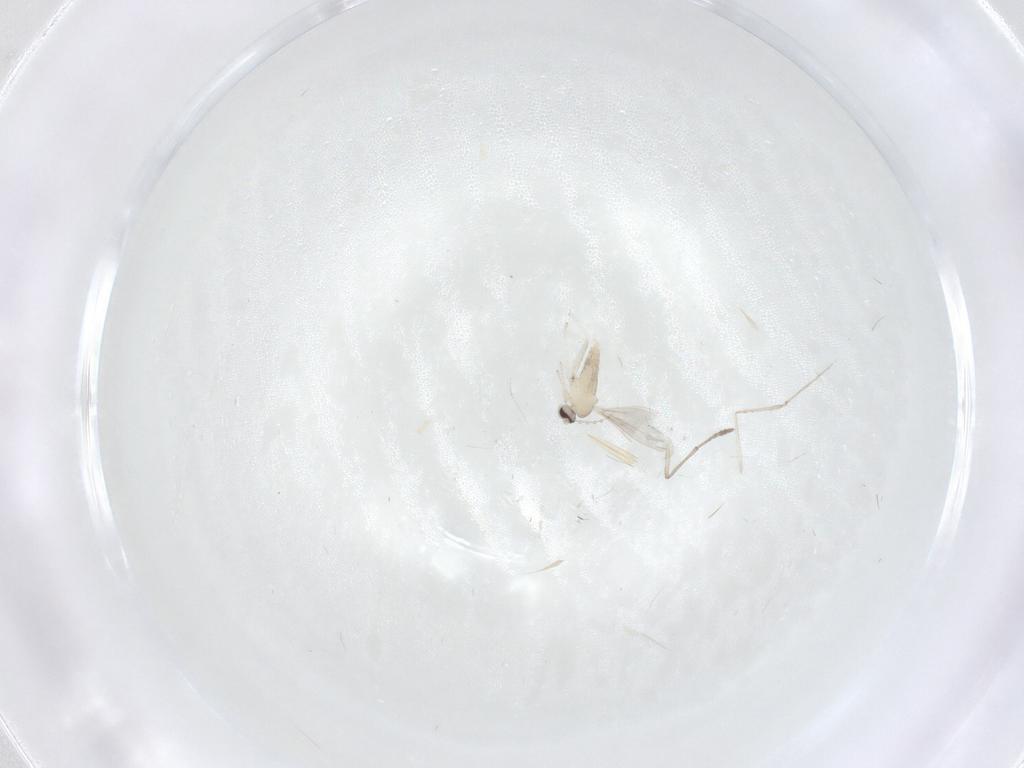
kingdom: Animalia
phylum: Arthropoda
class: Insecta
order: Diptera
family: Cecidomyiidae
